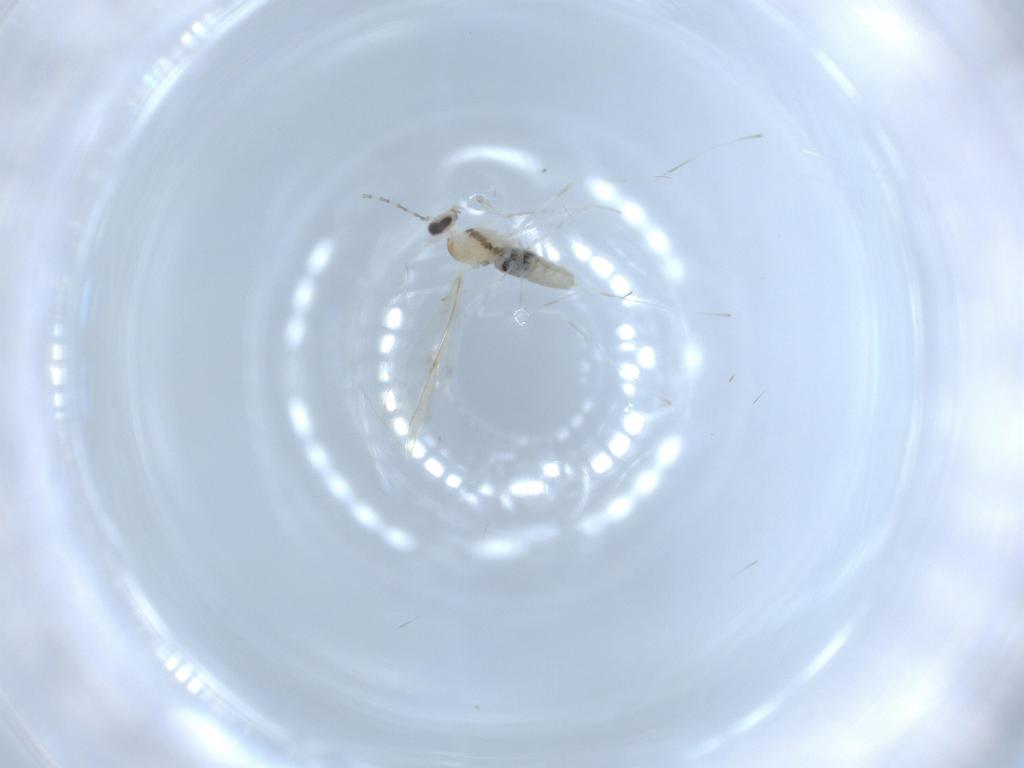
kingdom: Animalia
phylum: Arthropoda
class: Insecta
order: Diptera
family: Cecidomyiidae
